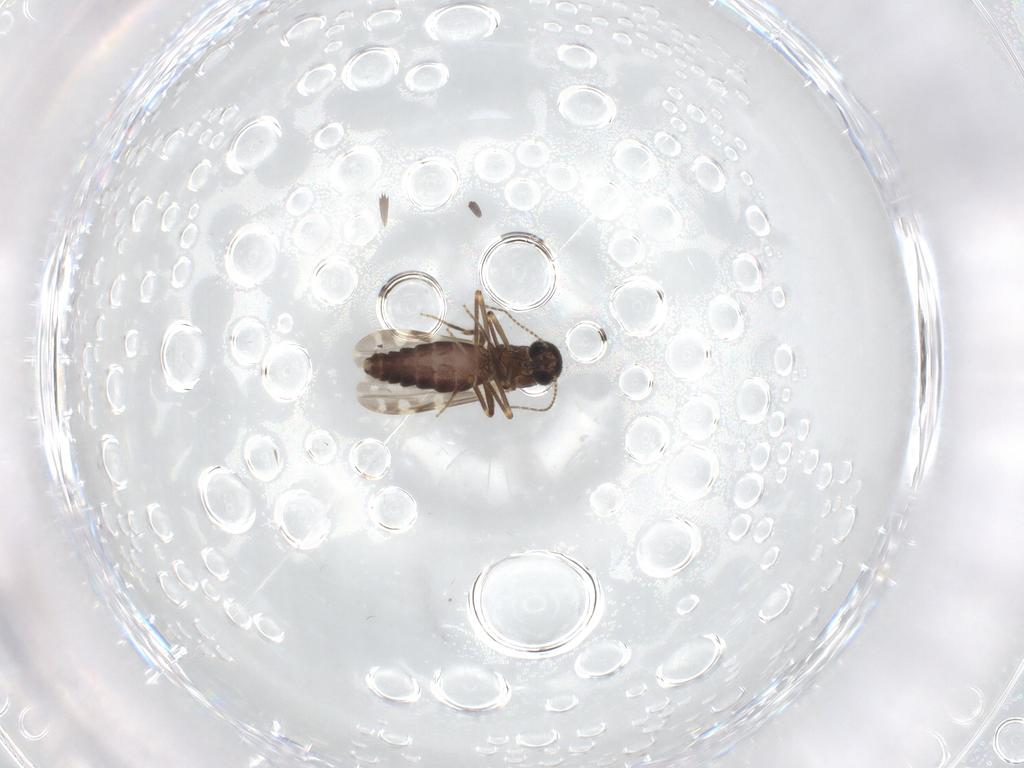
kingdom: Animalia
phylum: Arthropoda
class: Insecta
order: Diptera
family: Ceratopogonidae
